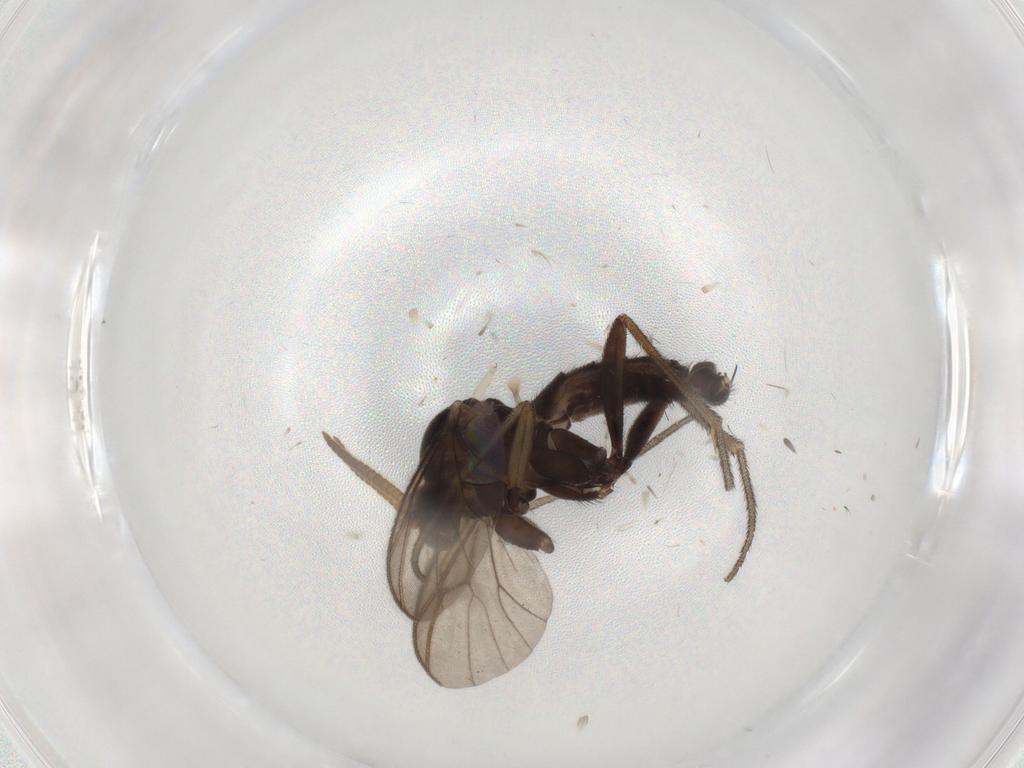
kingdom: Animalia
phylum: Arthropoda
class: Insecta
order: Diptera
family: Mycetophilidae
